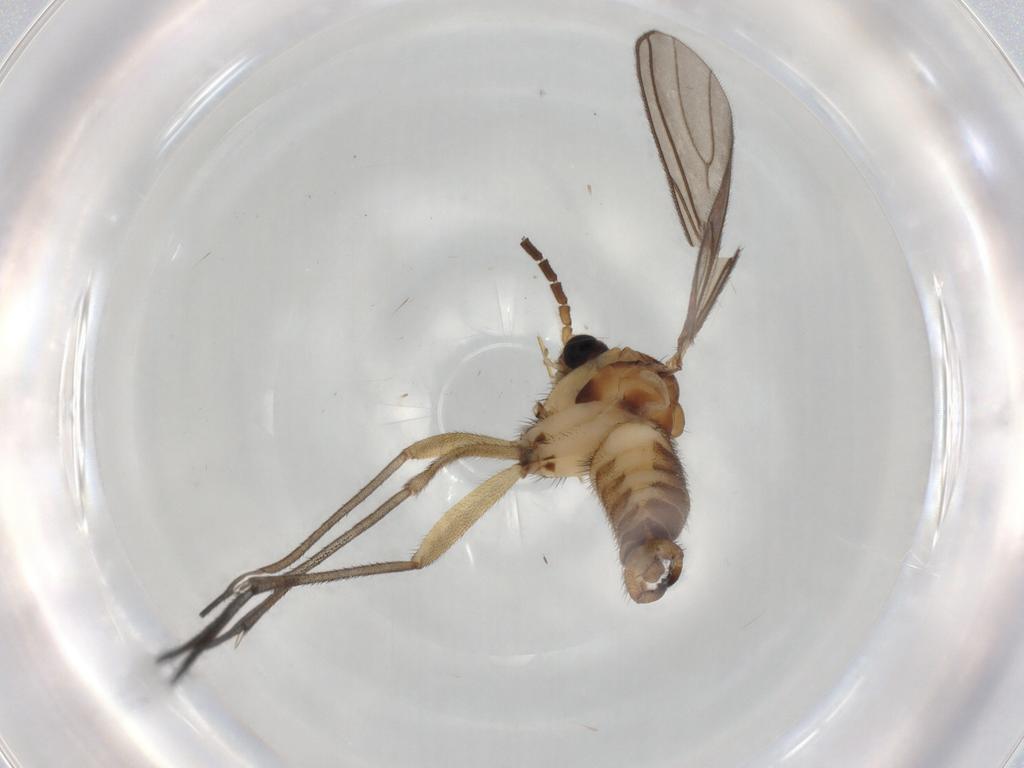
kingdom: Animalia
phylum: Arthropoda
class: Insecta
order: Diptera
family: Sciaridae
